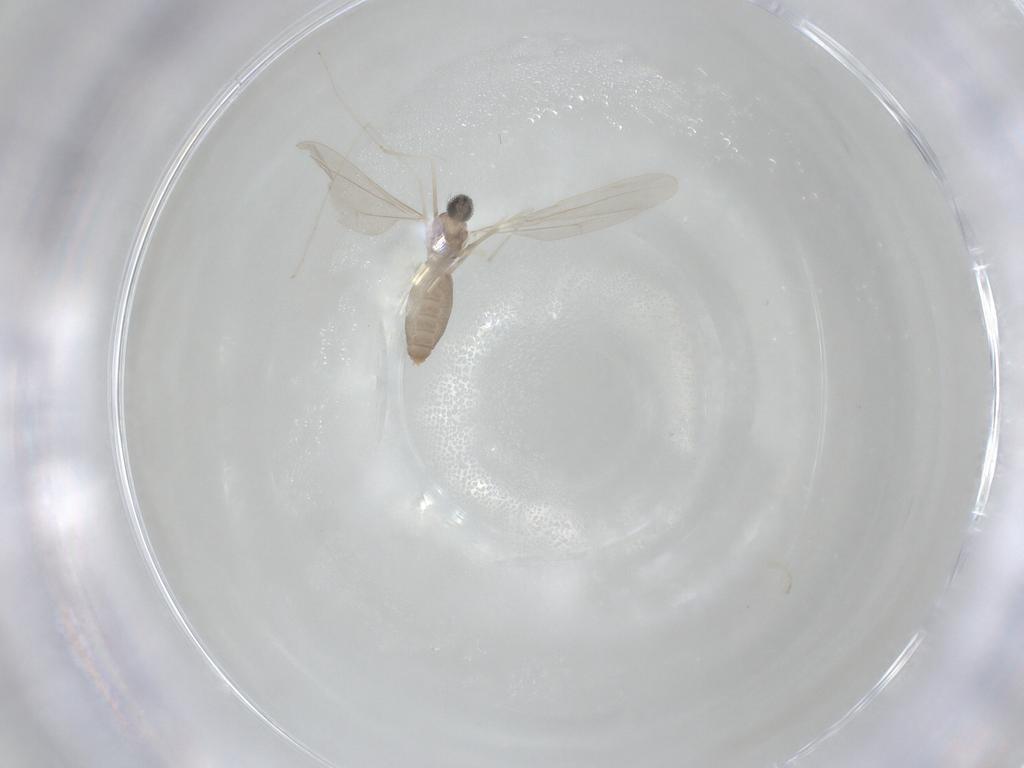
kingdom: Animalia
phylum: Arthropoda
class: Insecta
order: Diptera
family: Cecidomyiidae
